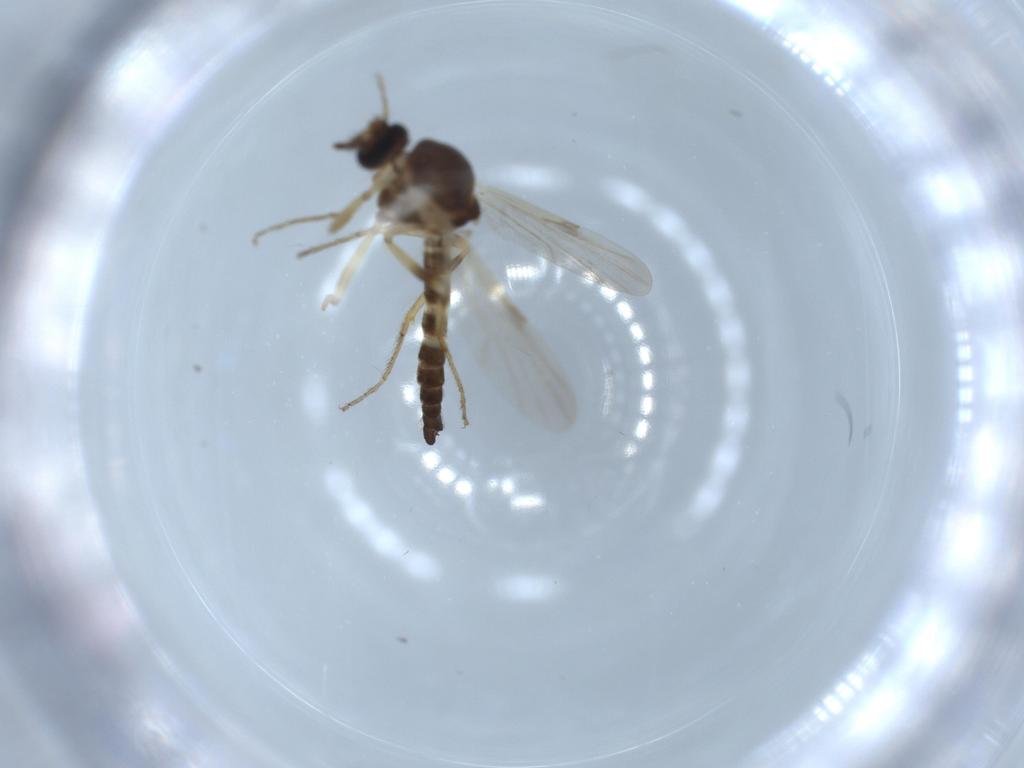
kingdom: Animalia
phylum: Arthropoda
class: Insecta
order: Diptera
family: Ceratopogonidae
